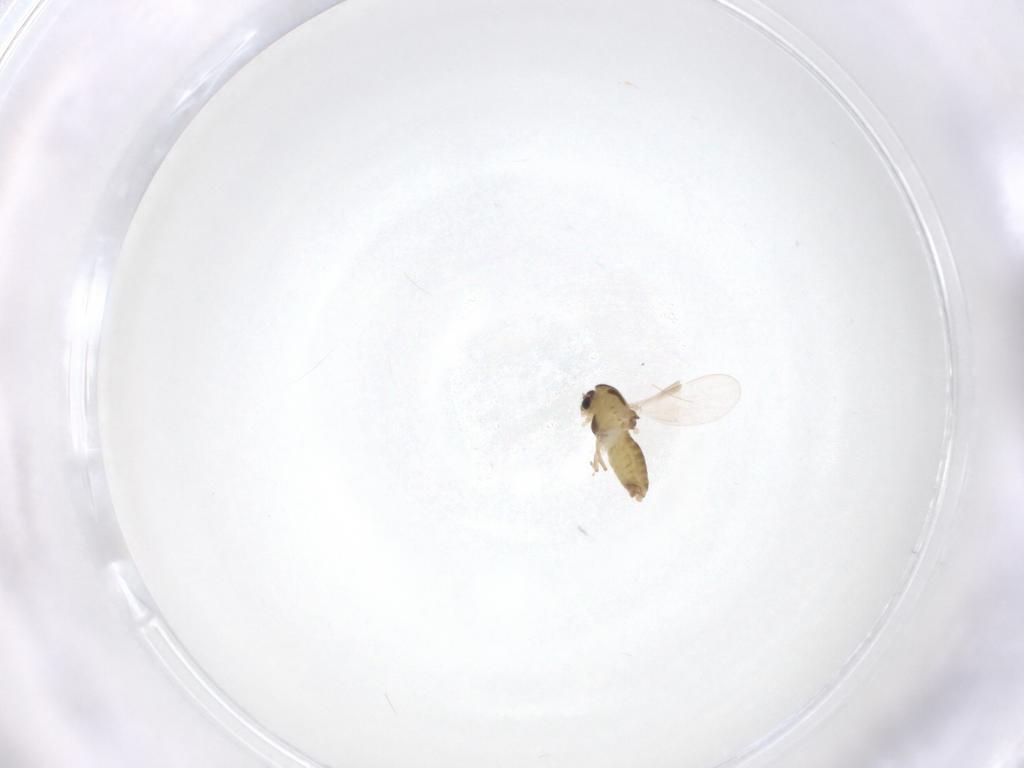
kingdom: Animalia
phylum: Arthropoda
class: Insecta
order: Diptera
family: Chironomidae
